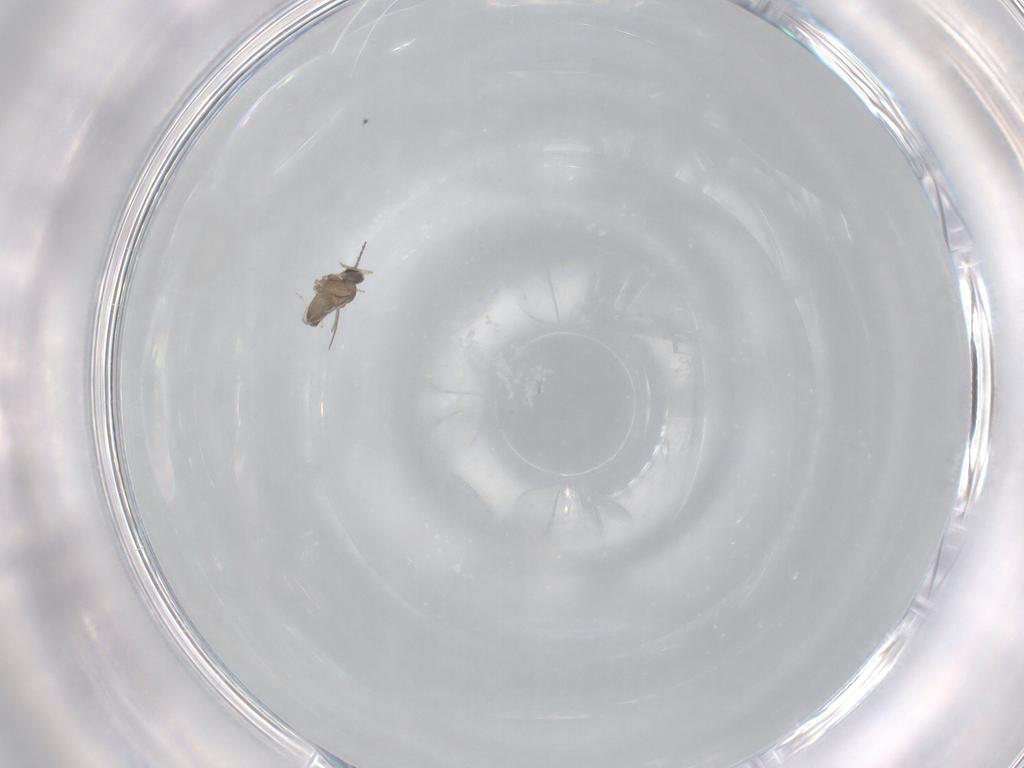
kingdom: Animalia
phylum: Arthropoda
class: Insecta
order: Diptera
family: Cecidomyiidae
